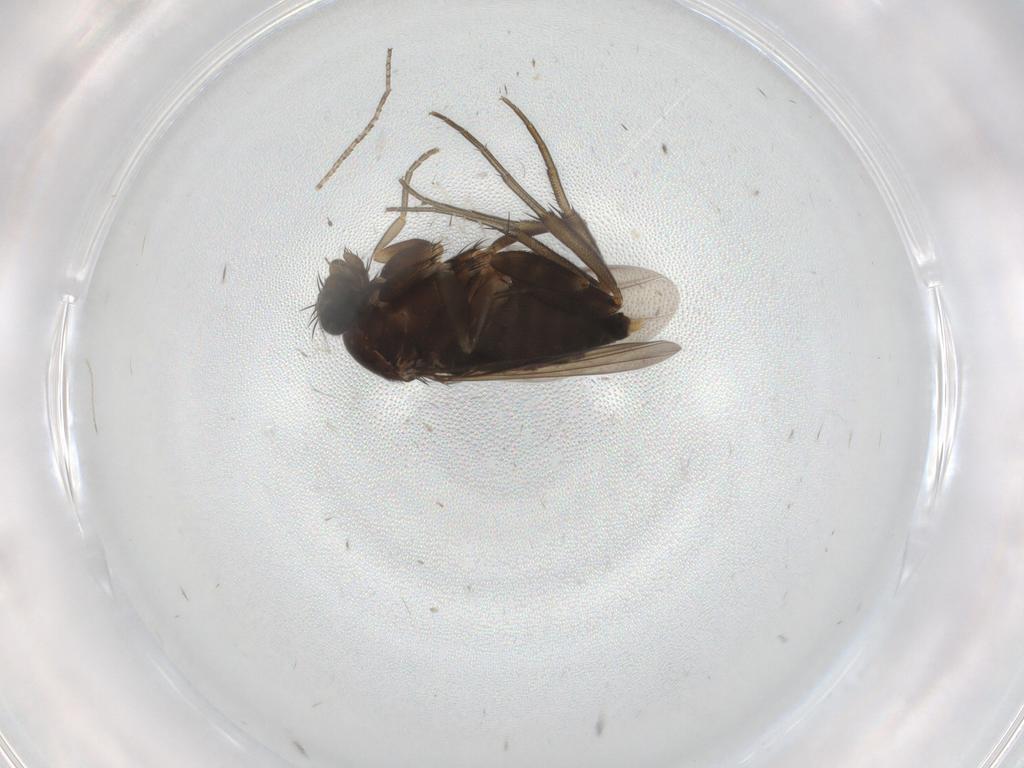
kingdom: Animalia
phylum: Arthropoda
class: Insecta
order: Diptera
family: Phoridae
